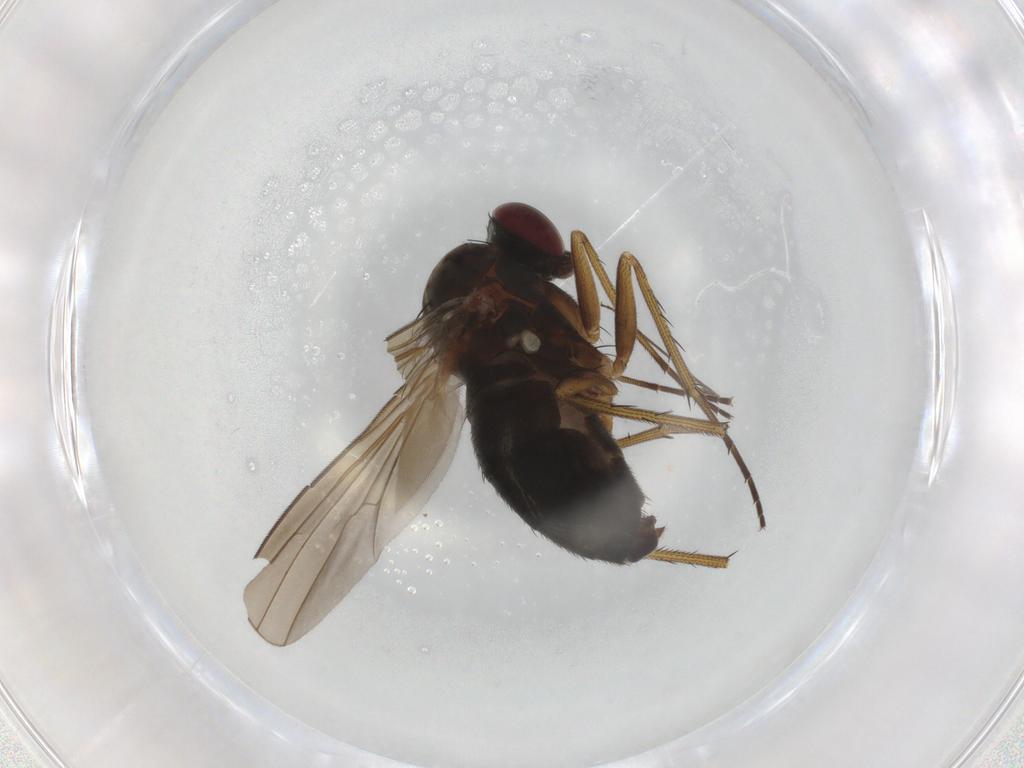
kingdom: Animalia
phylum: Arthropoda
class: Insecta
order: Diptera
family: Dolichopodidae
